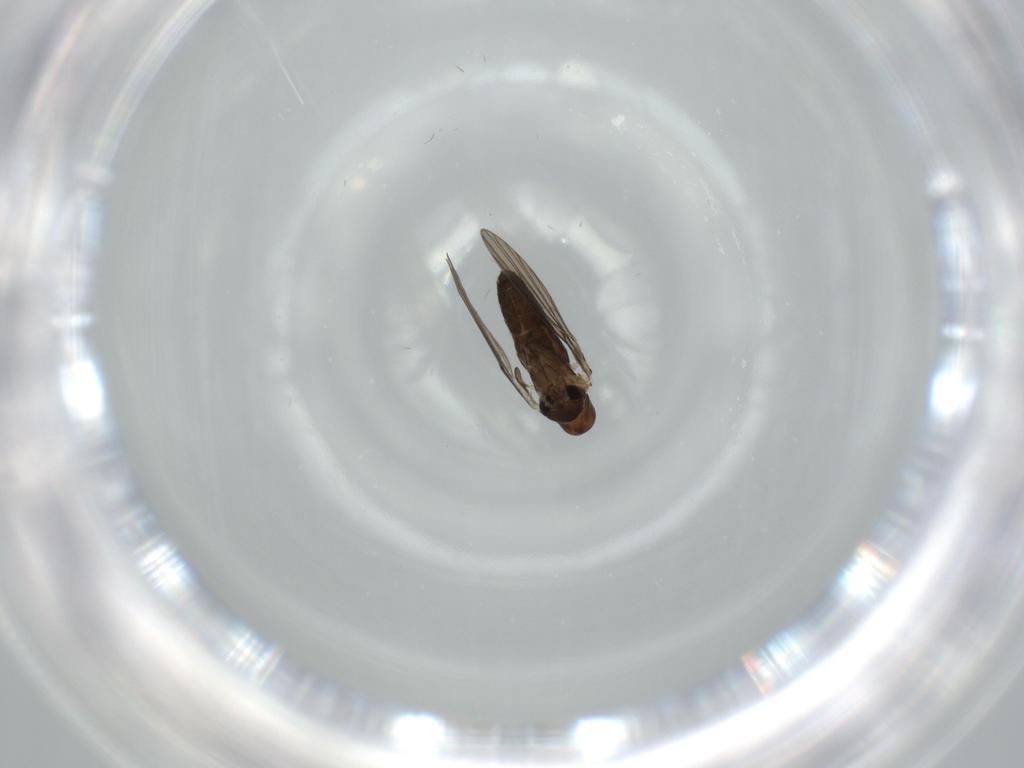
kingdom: Animalia
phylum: Arthropoda
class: Insecta
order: Diptera
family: Psychodidae
